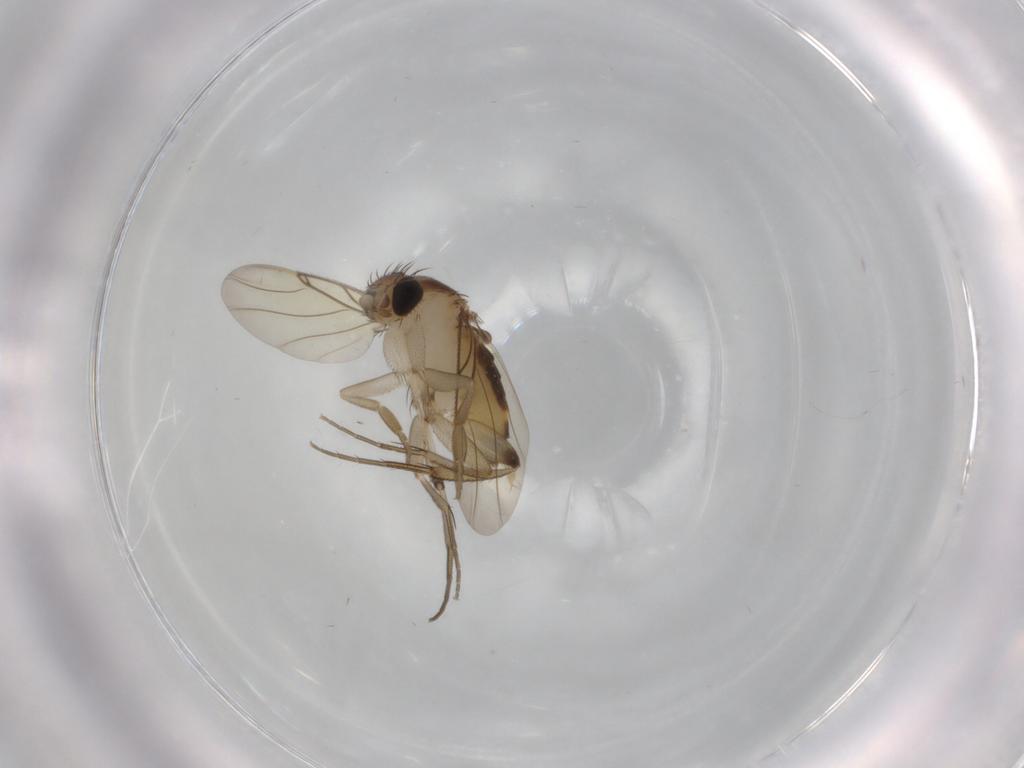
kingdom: Animalia
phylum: Arthropoda
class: Insecta
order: Diptera
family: Phoridae
